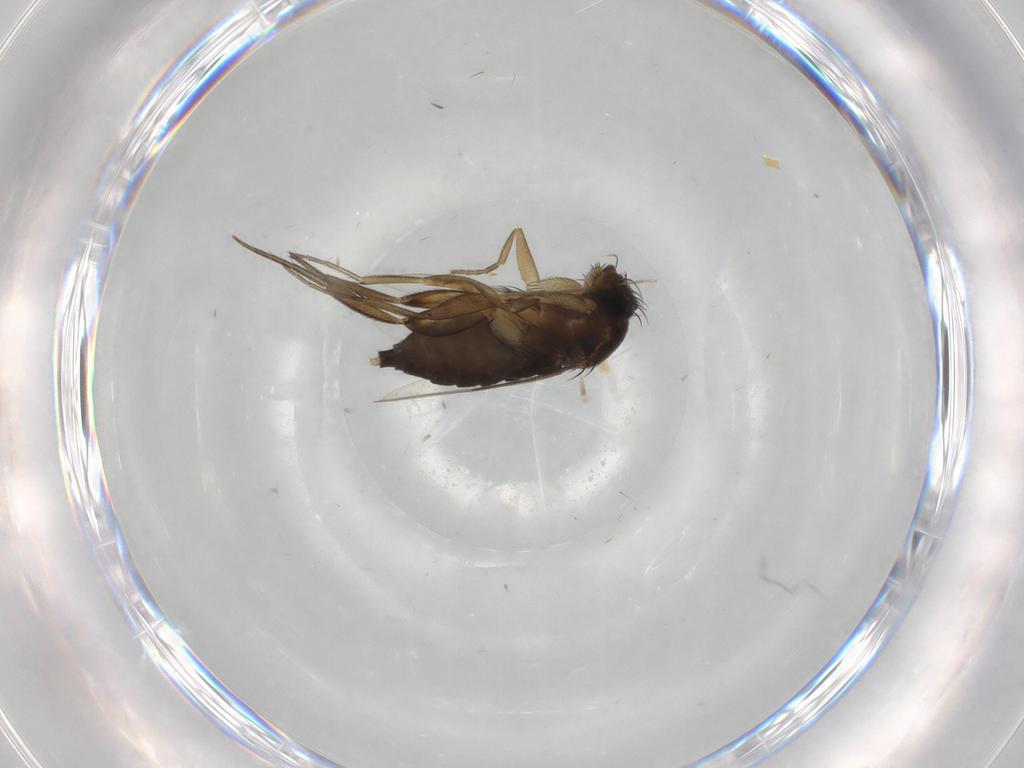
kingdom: Animalia
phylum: Arthropoda
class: Insecta
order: Diptera
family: Phoridae
